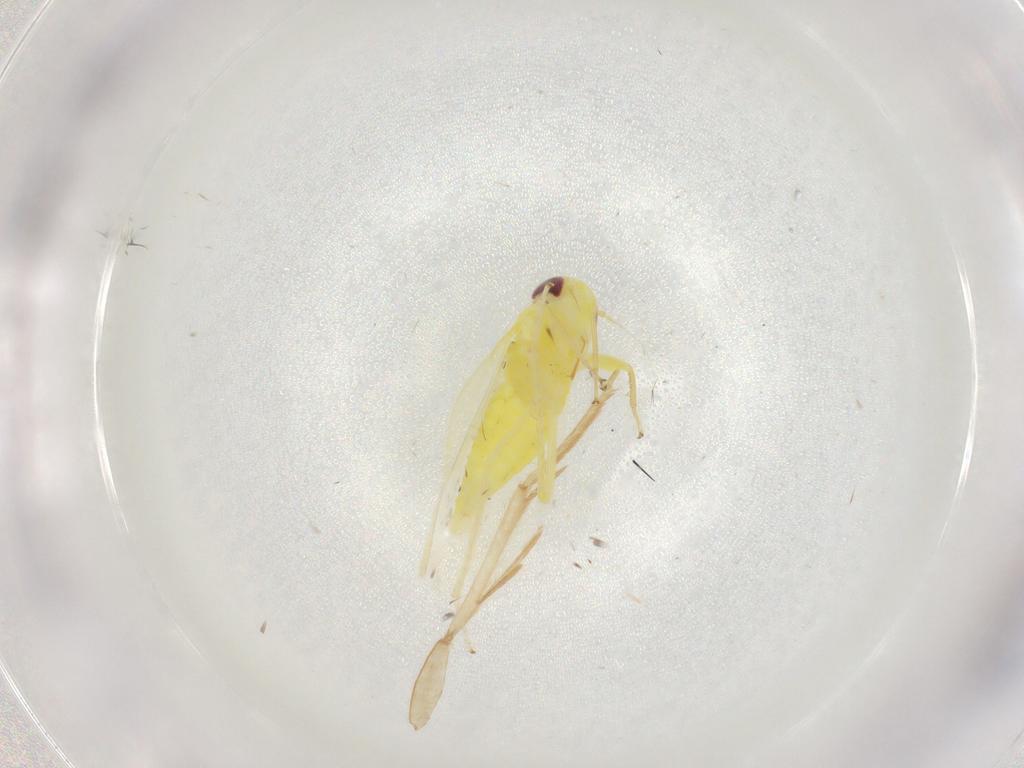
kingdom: Animalia
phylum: Arthropoda
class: Insecta
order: Hemiptera
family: Cicadellidae
